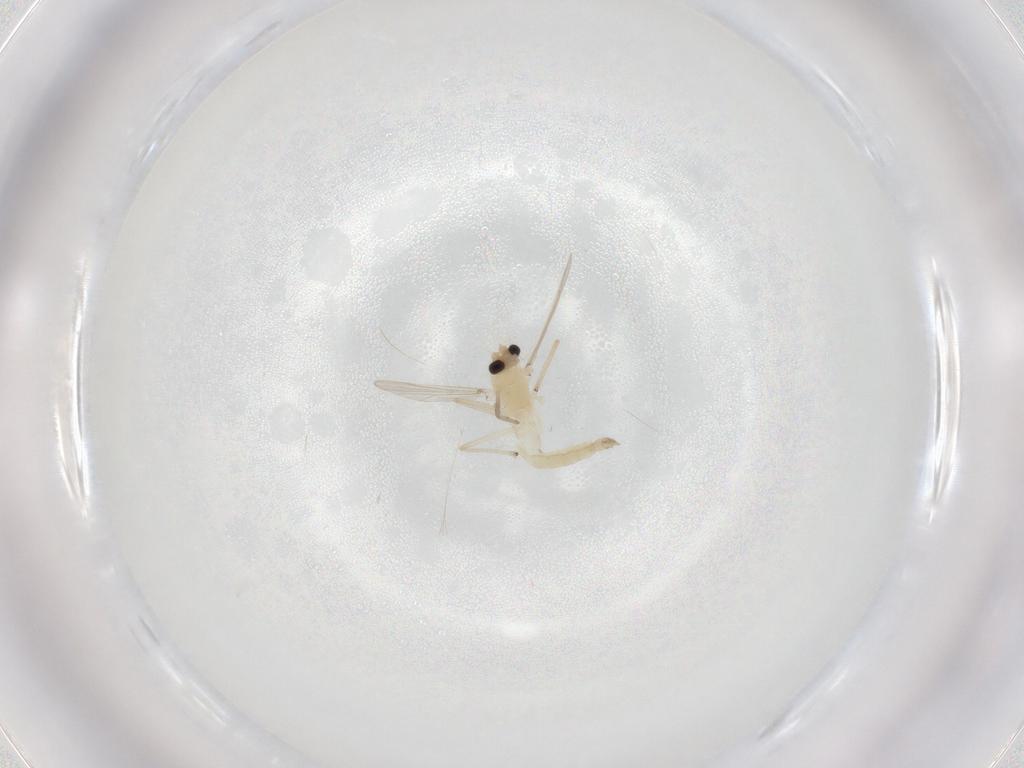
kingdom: Animalia
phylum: Arthropoda
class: Insecta
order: Diptera
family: Chironomidae
